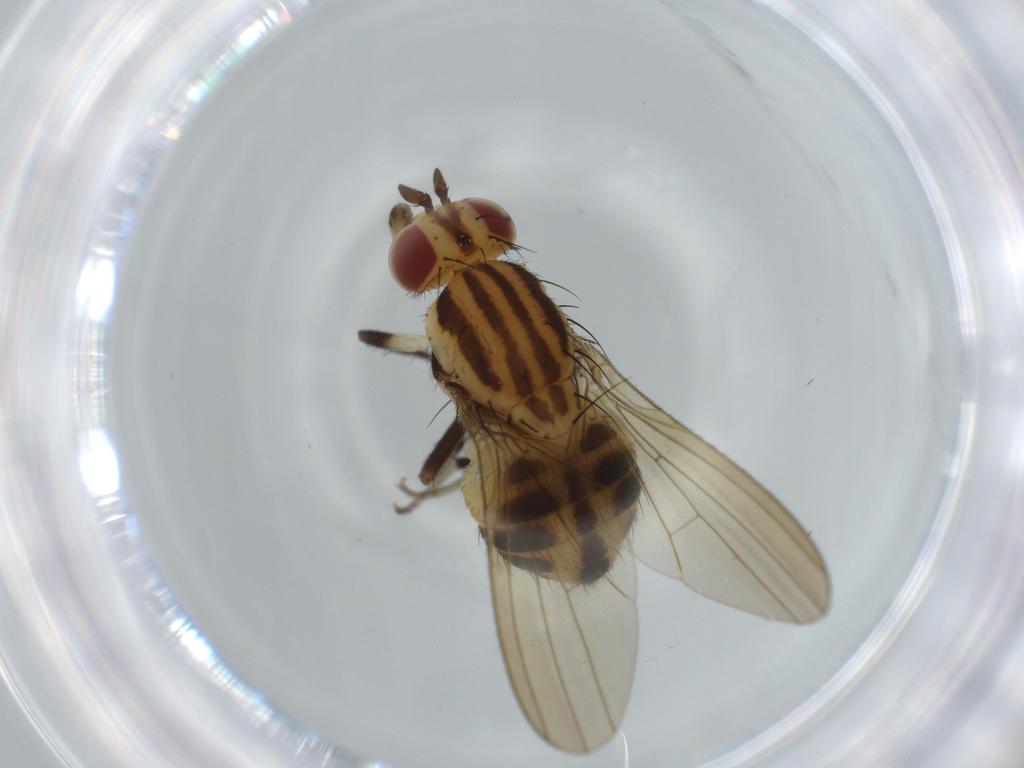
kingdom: Animalia
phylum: Arthropoda
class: Insecta
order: Diptera
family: Lauxaniidae
